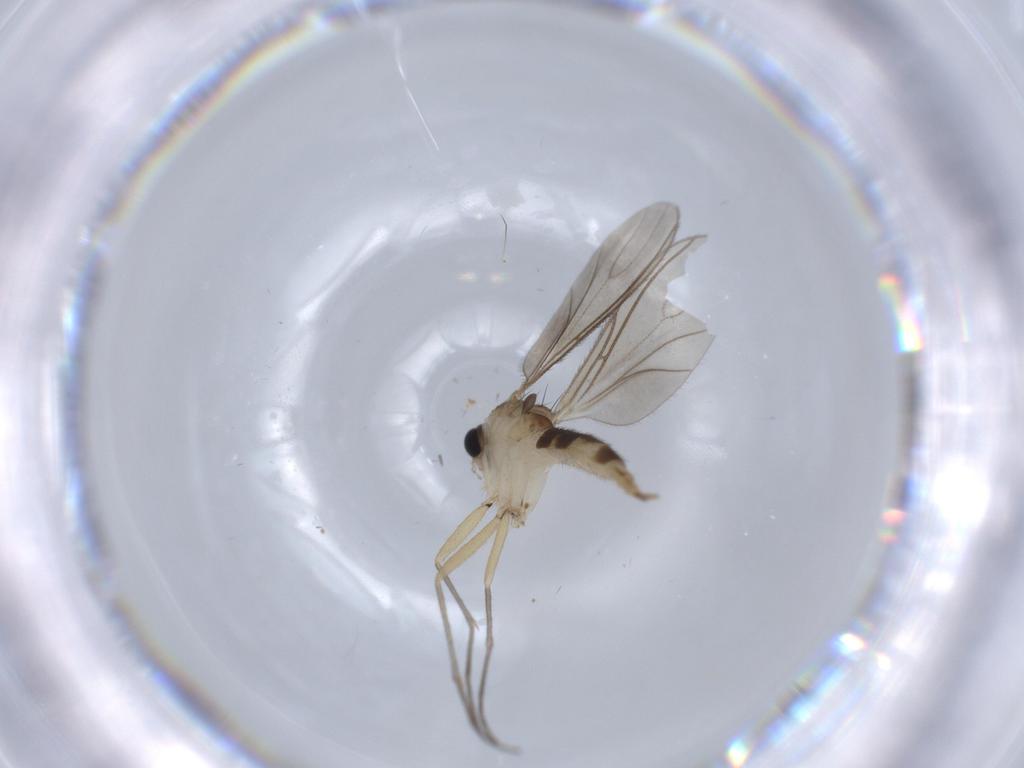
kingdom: Animalia
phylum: Arthropoda
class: Insecta
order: Diptera
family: Sciaridae
